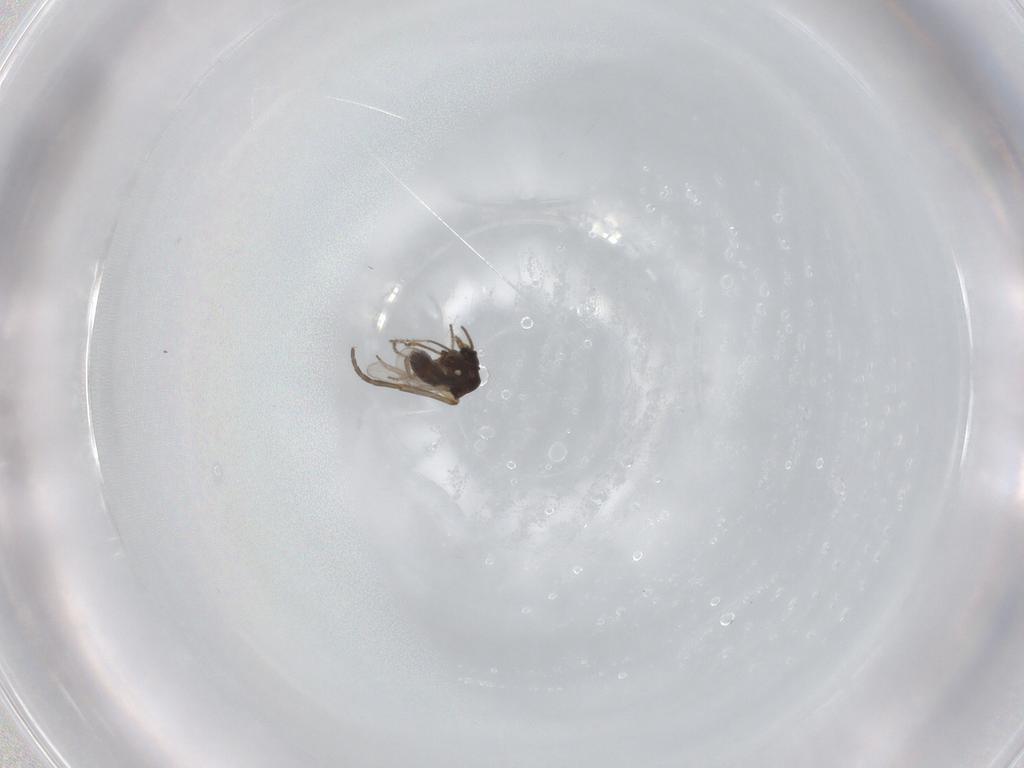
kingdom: Animalia
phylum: Arthropoda
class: Insecta
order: Diptera
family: Ceratopogonidae
